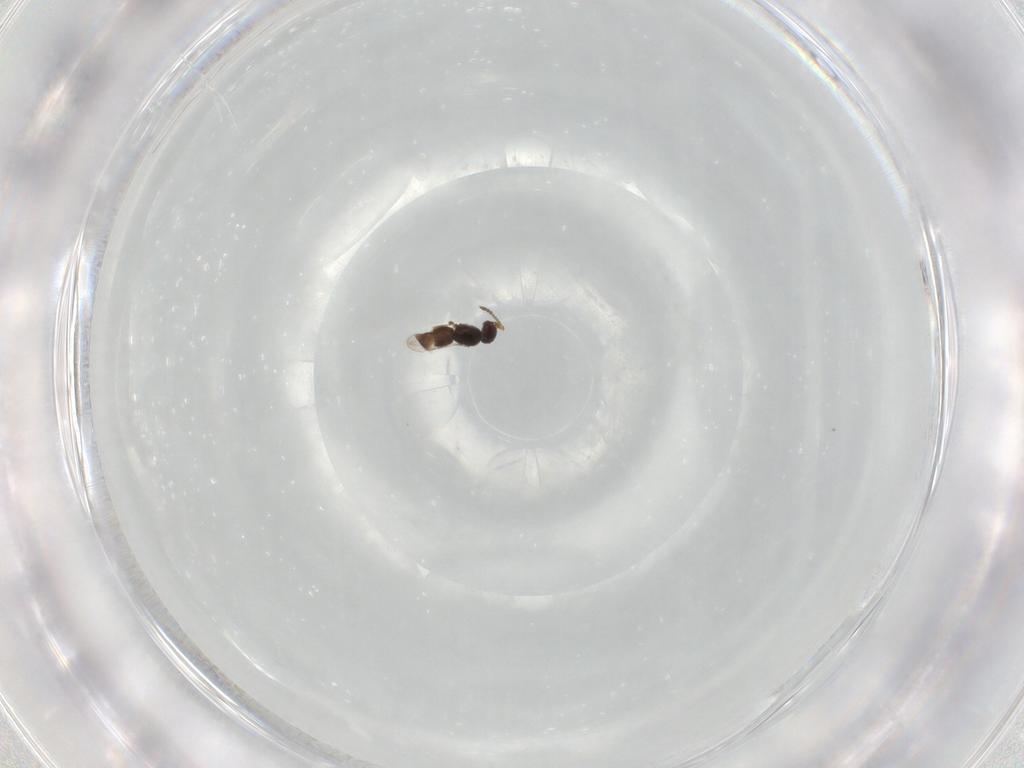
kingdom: Animalia
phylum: Arthropoda
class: Insecta
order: Hymenoptera
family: Ceraphronidae
